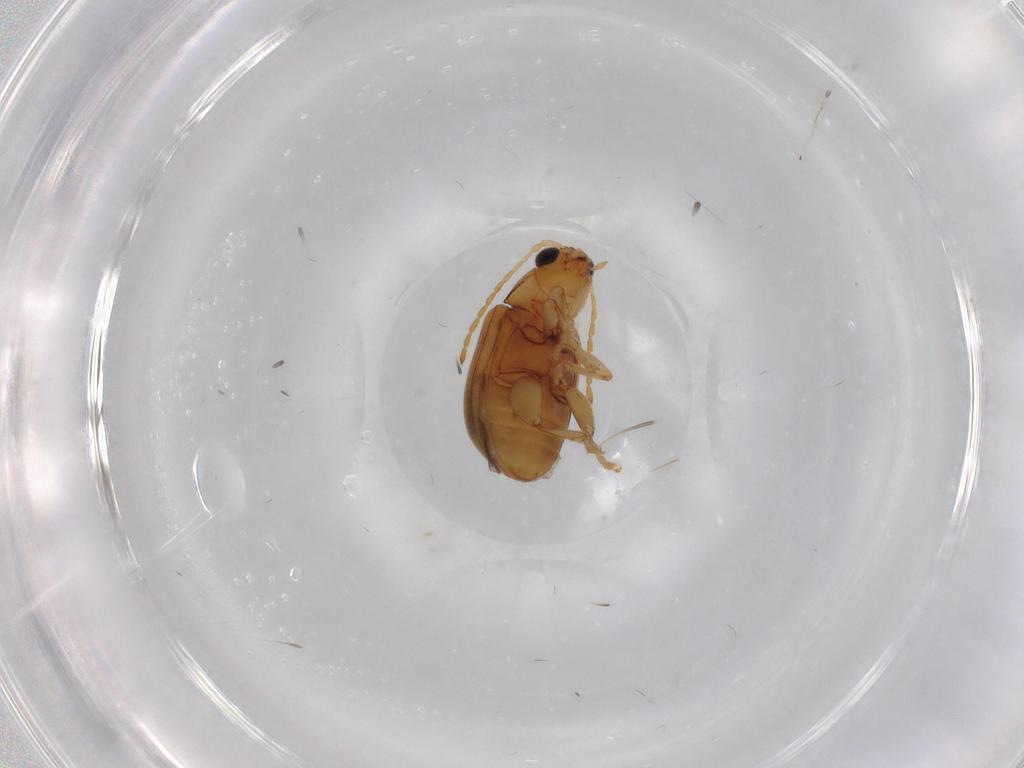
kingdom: Animalia
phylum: Arthropoda
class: Insecta
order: Coleoptera
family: Chrysomelidae
